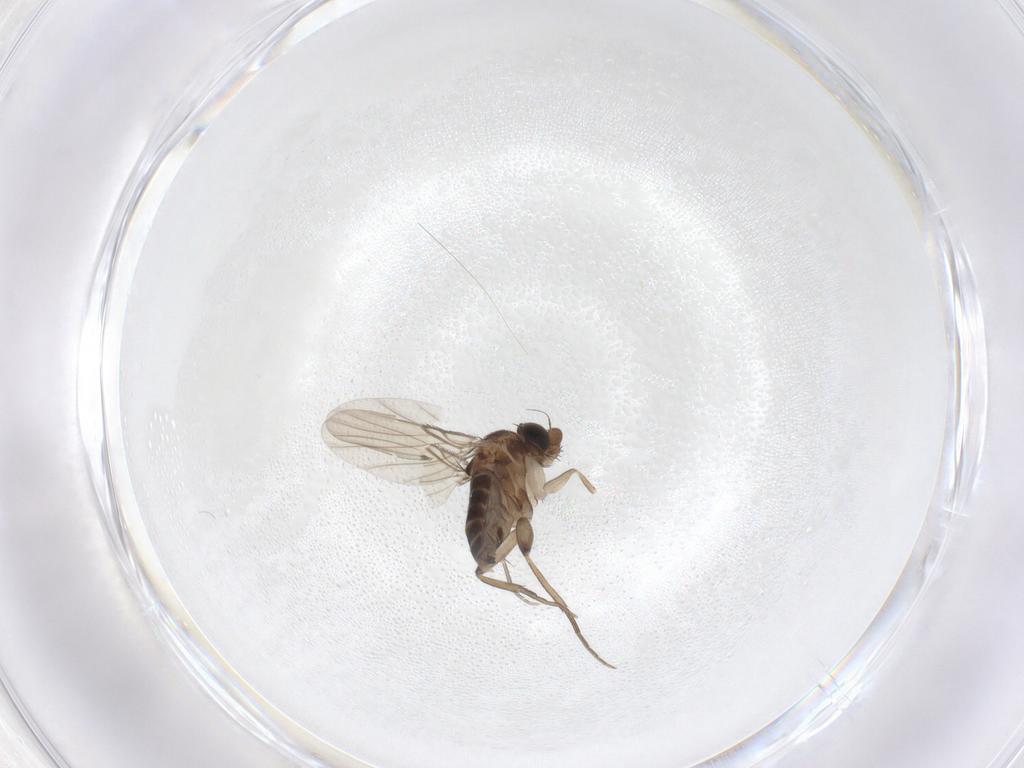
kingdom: Animalia
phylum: Arthropoda
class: Insecta
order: Diptera
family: Phoridae
